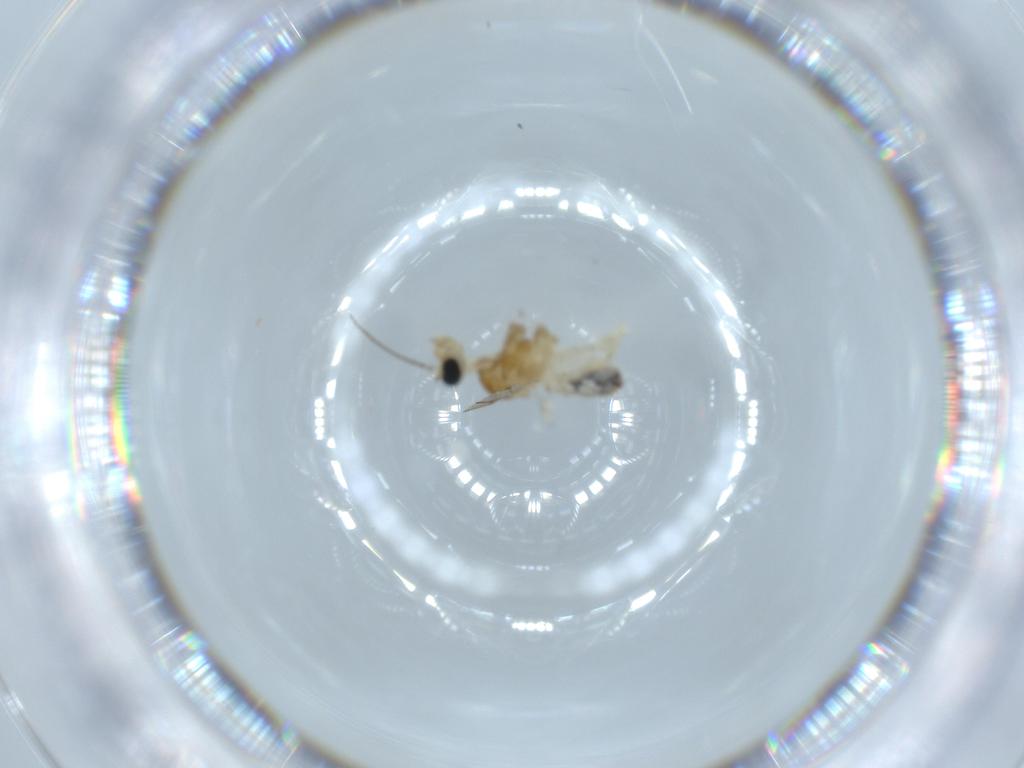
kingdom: Animalia
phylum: Arthropoda
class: Insecta
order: Diptera
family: Cecidomyiidae
